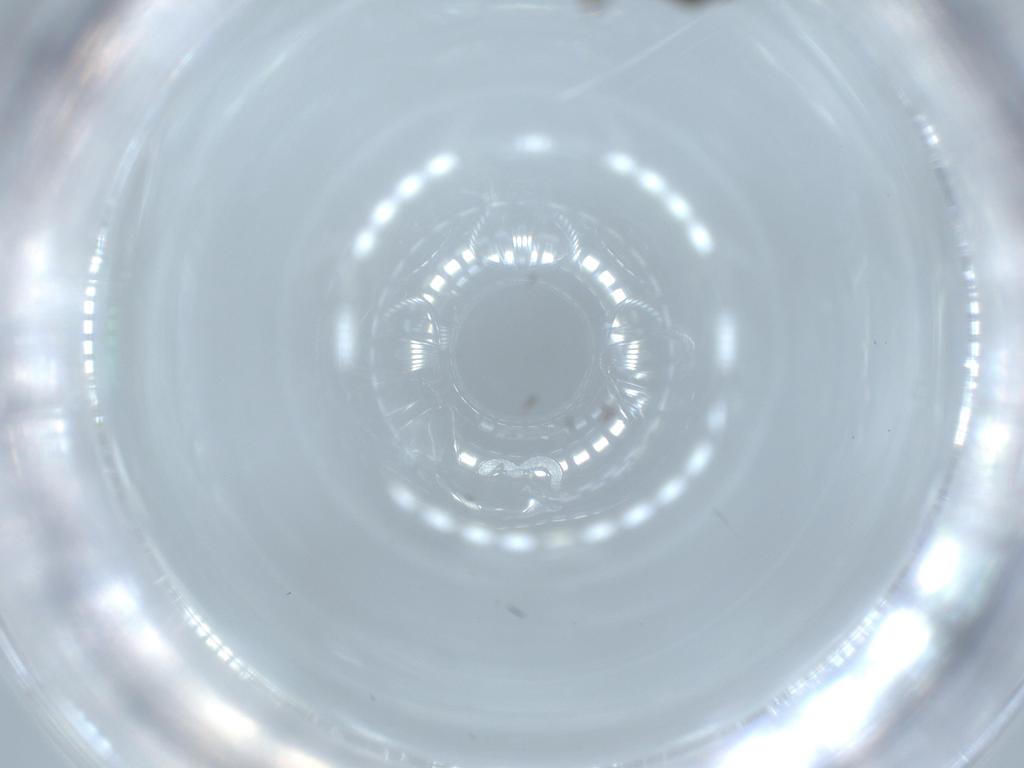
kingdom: Animalia
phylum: Arthropoda
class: Insecta
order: Diptera
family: Sciaridae
